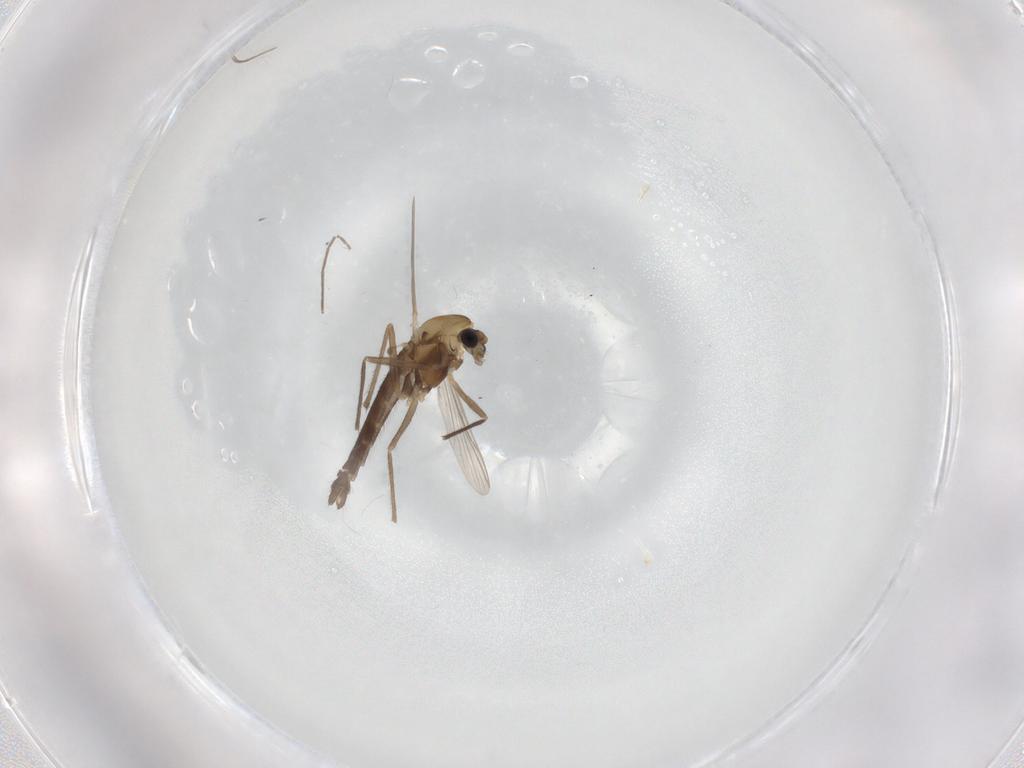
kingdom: Animalia
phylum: Arthropoda
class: Insecta
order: Diptera
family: Chironomidae
